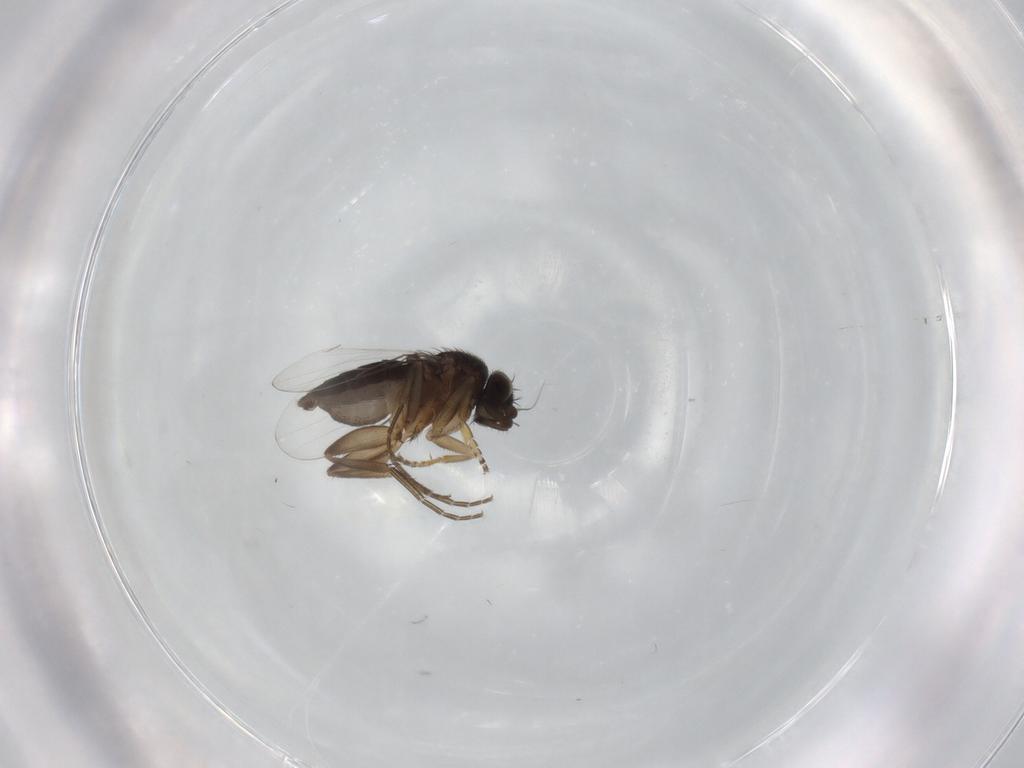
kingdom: Animalia
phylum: Arthropoda
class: Insecta
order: Diptera
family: Phoridae
